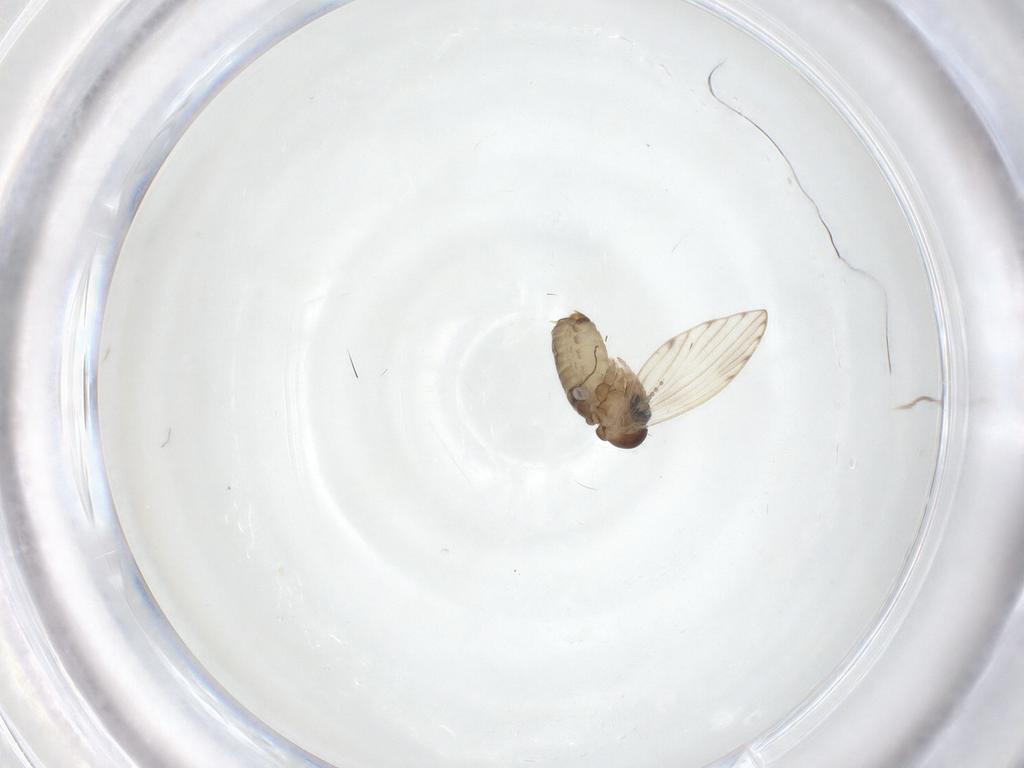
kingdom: Animalia
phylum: Arthropoda
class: Insecta
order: Diptera
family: Psychodidae
